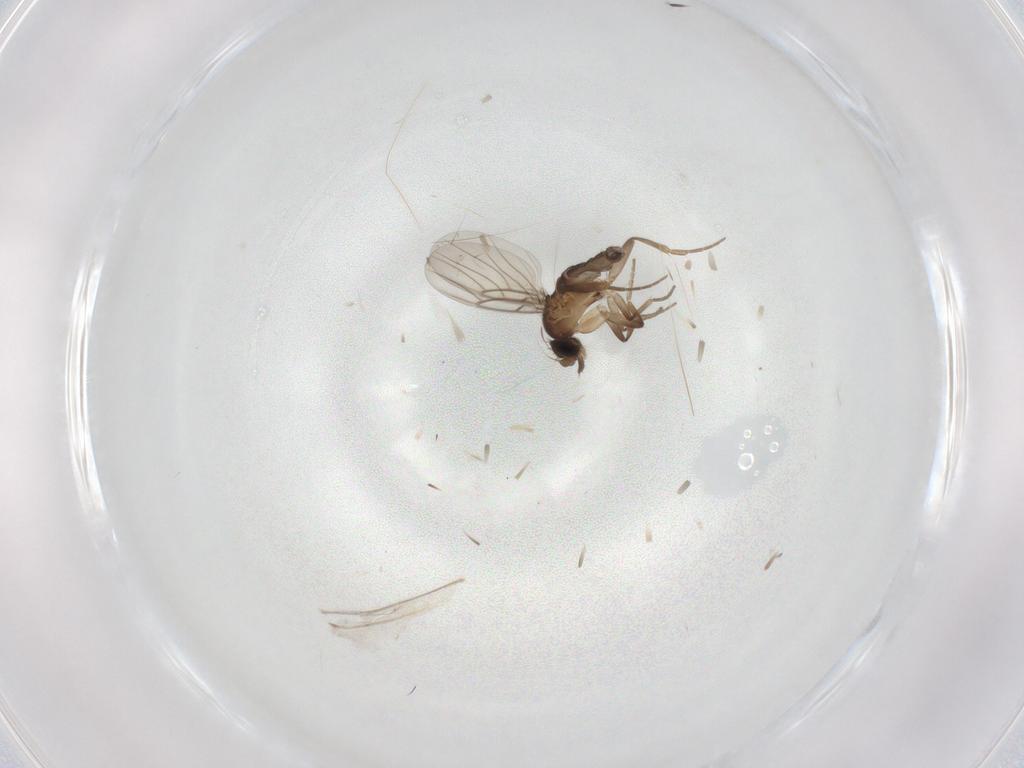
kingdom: Animalia
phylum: Arthropoda
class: Insecta
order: Diptera
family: Phoridae
